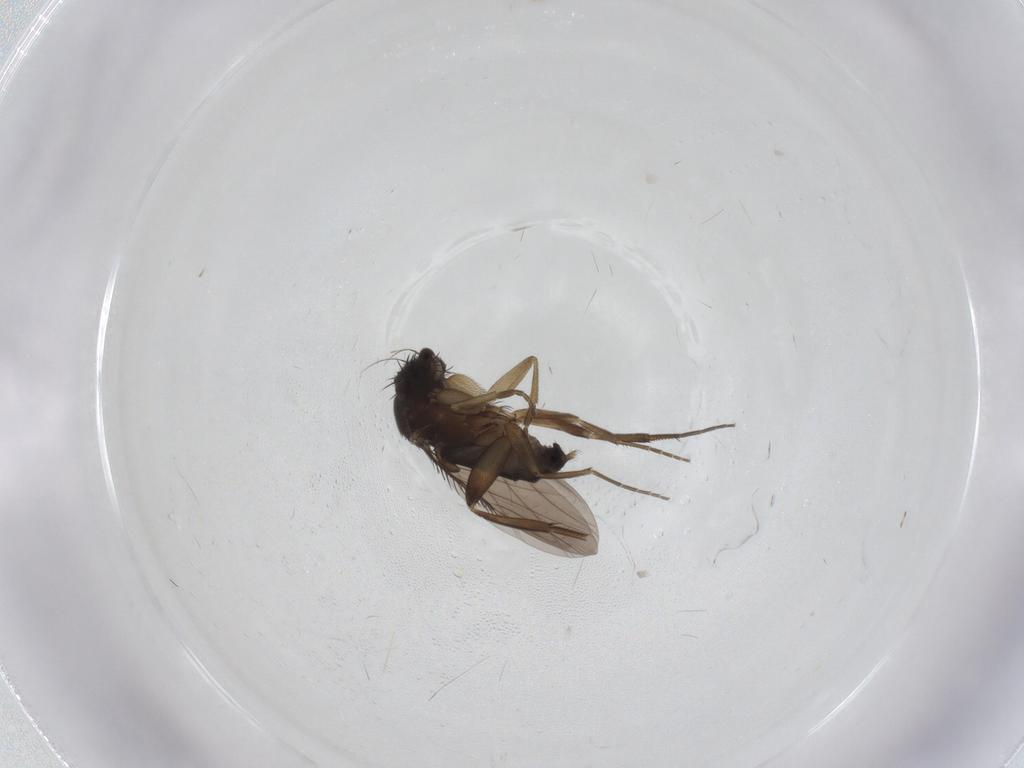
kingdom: Animalia
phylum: Arthropoda
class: Insecta
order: Diptera
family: Phoridae
